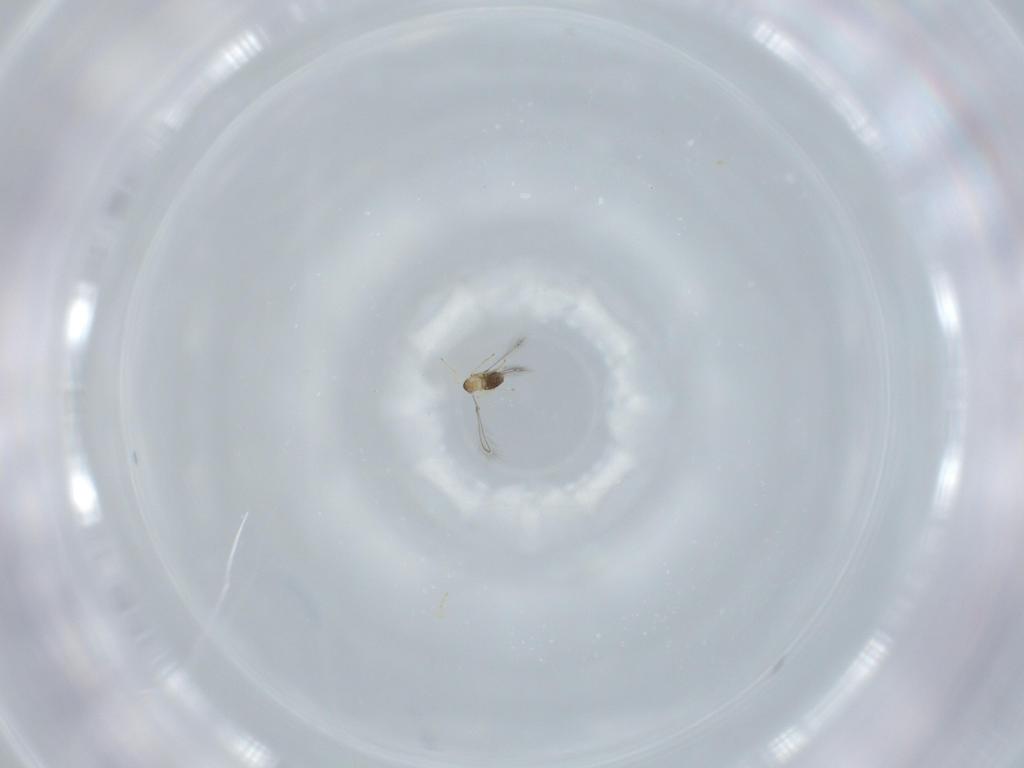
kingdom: Animalia
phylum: Arthropoda
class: Insecta
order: Hymenoptera
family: Mymaridae
